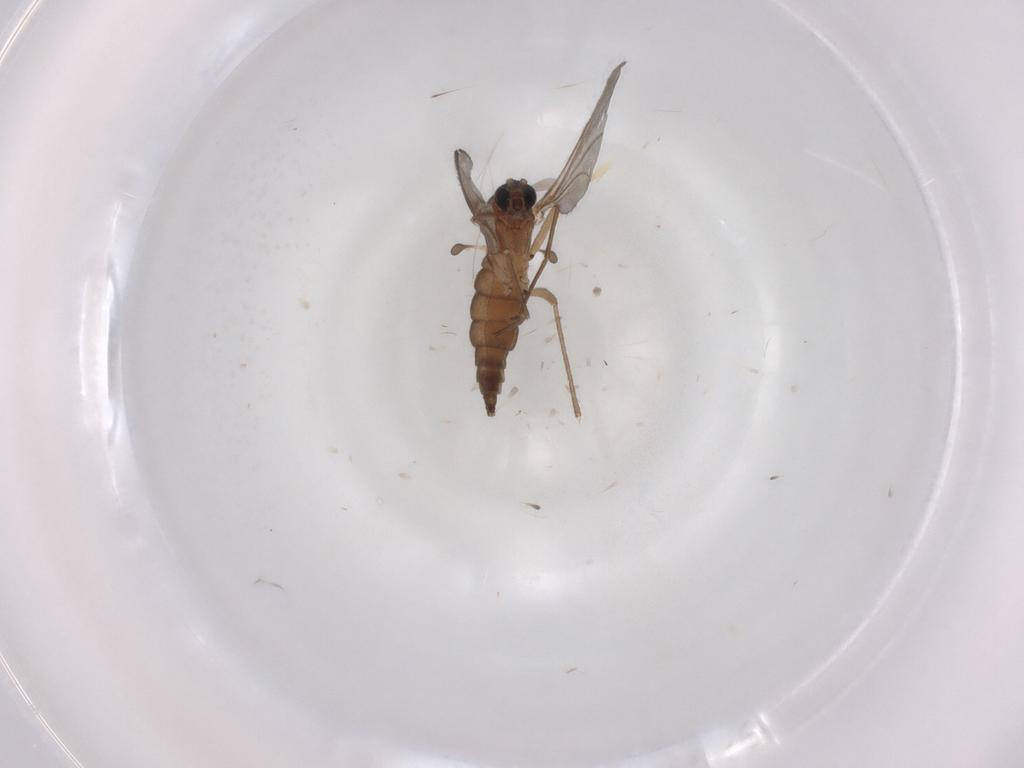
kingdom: Animalia
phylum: Arthropoda
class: Insecta
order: Diptera
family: Sciaridae
